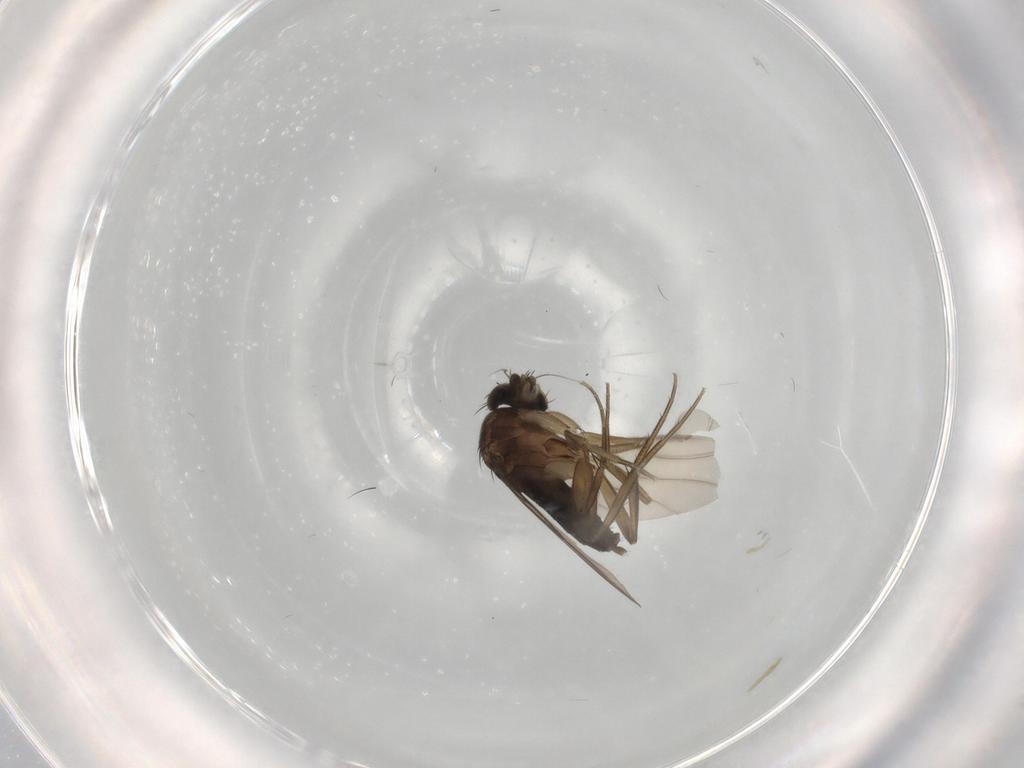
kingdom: Animalia
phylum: Arthropoda
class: Insecta
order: Diptera
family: Phoridae
